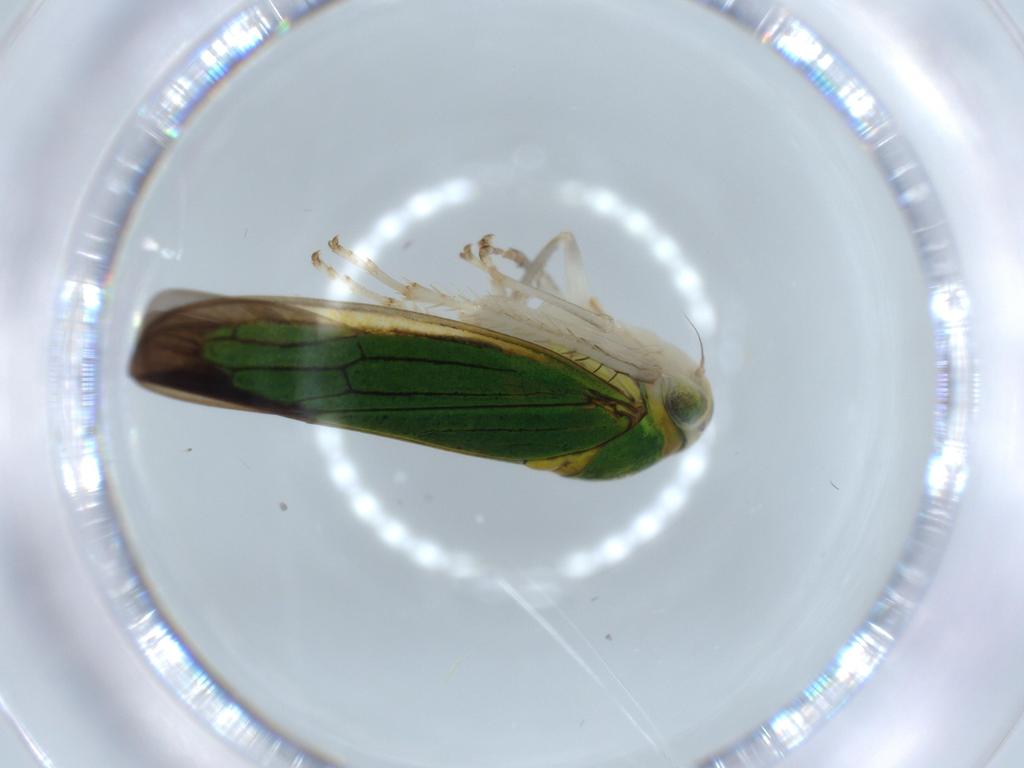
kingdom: Animalia
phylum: Arthropoda
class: Insecta
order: Hemiptera
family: Cicadellidae
